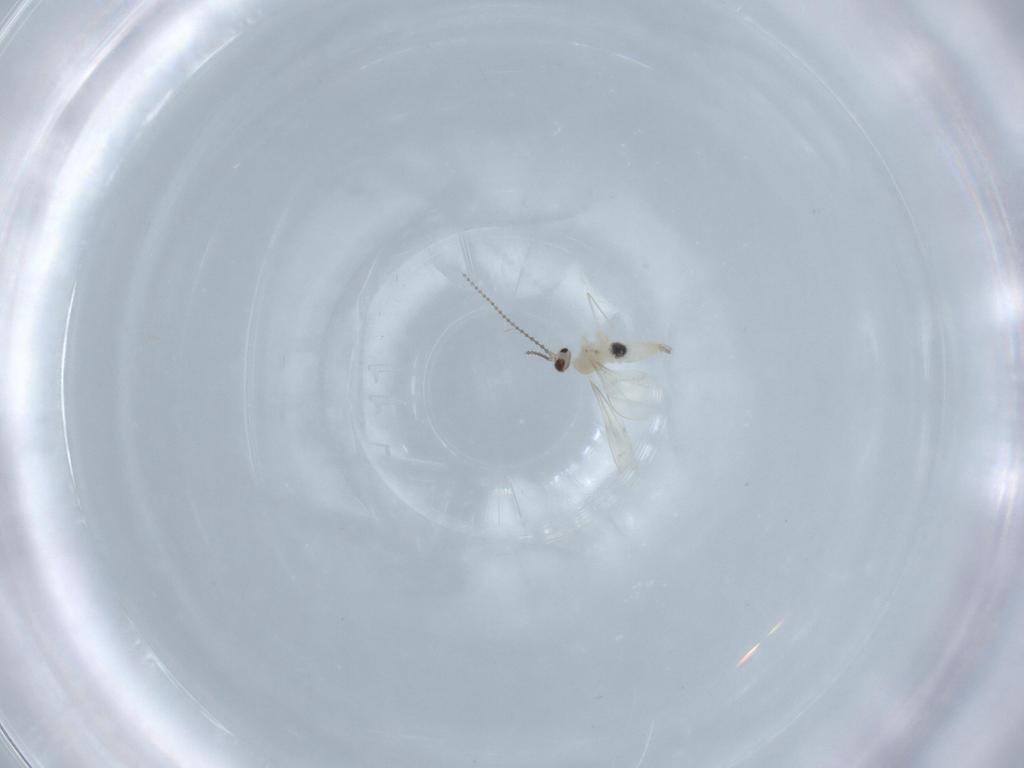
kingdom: Animalia
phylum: Arthropoda
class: Insecta
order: Diptera
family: Cecidomyiidae
